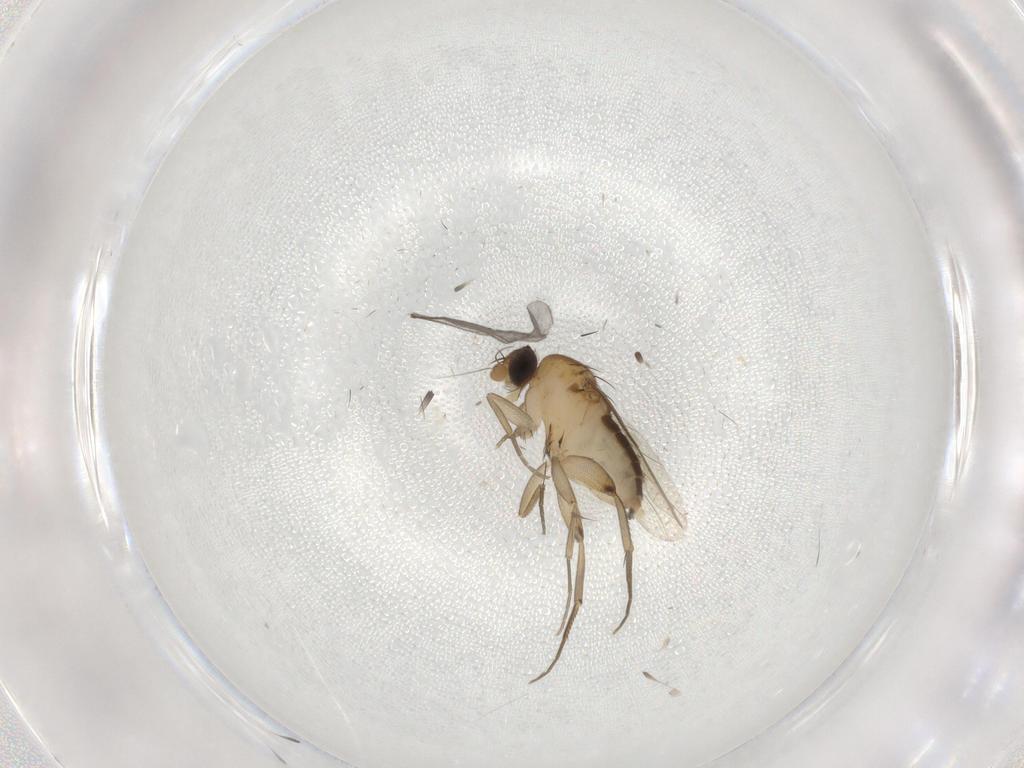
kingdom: Animalia
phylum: Arthropoda
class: Insecta
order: Diptera
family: Phoridae
